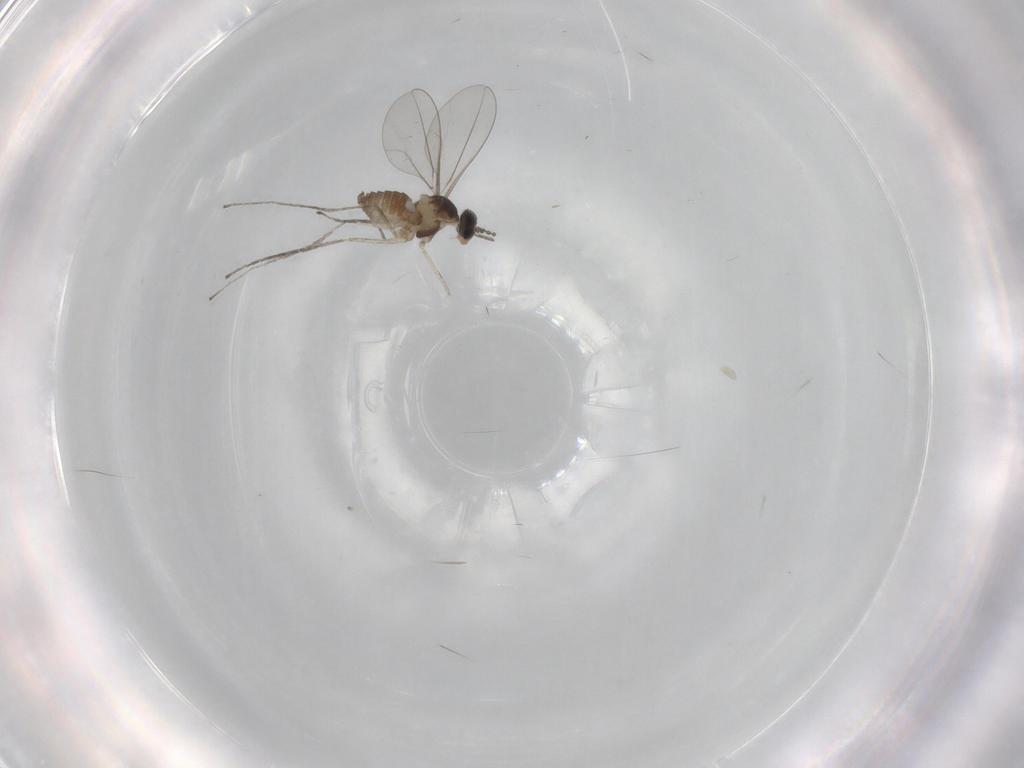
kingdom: Animalia
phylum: Arthropoda
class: Insecta
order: Diptera
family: Cecidomyiidae
